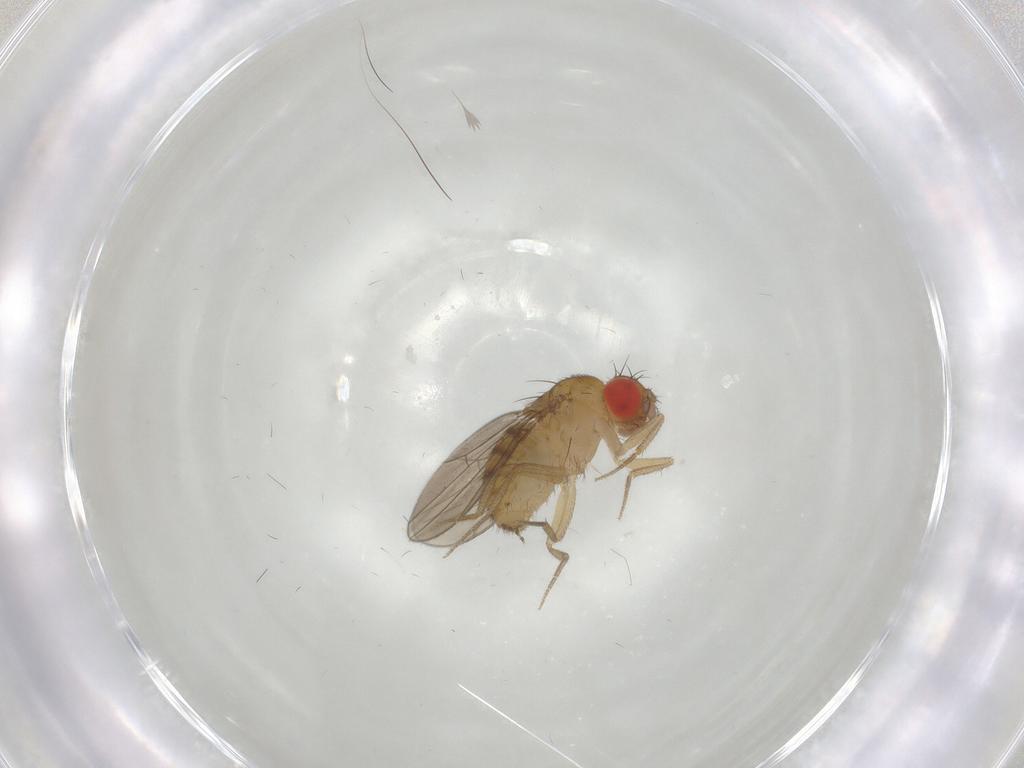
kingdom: Animalia
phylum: Arthropoda
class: Insecta
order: Diptera
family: Drosophilidae
